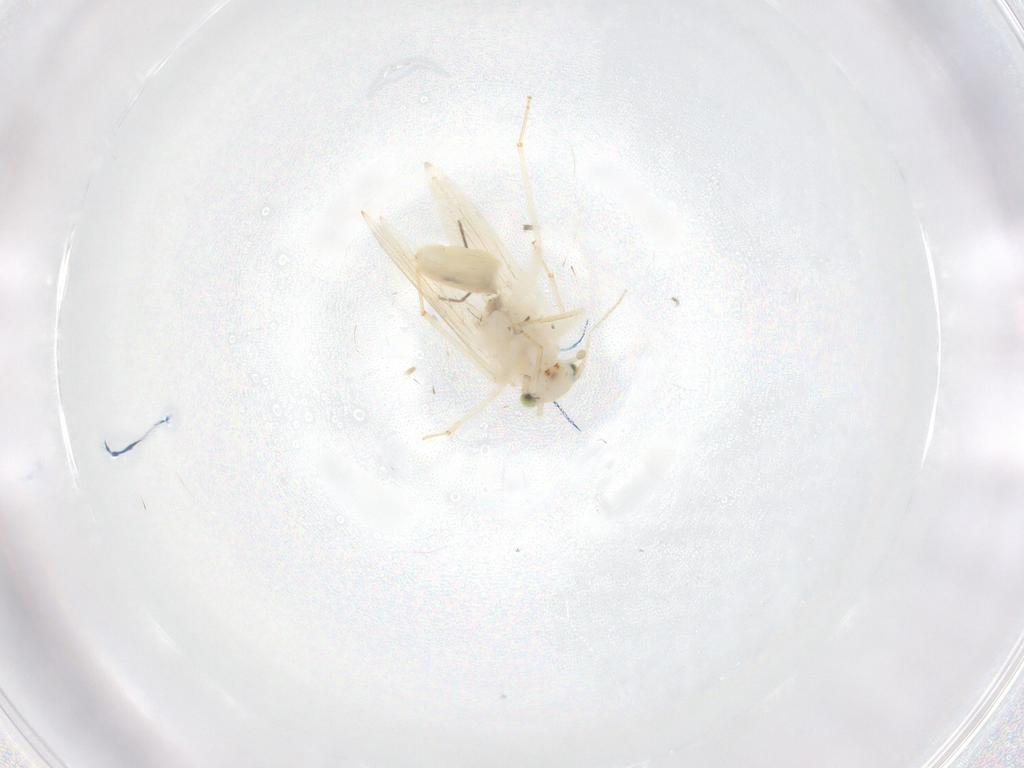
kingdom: Animalia
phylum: Arthropoda
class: Insecta
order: Psocodea
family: Lepidopsocidae
